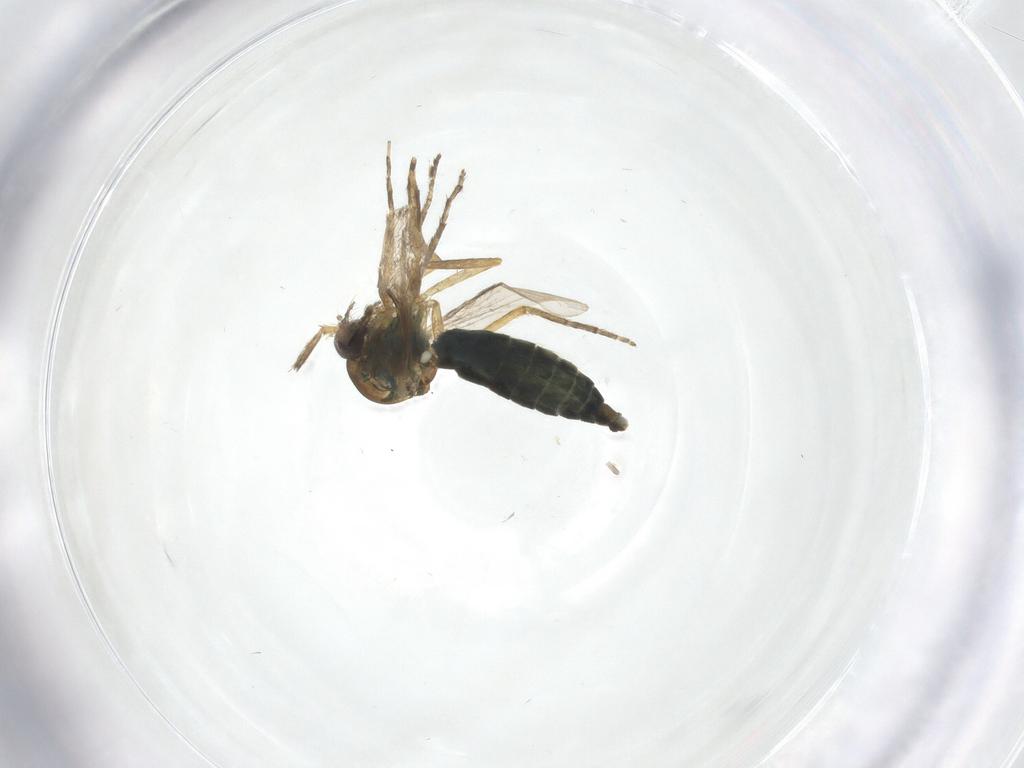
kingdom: Animalia
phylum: Arthropoda
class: Insecta
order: Diptera
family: Ceratopogonidae
